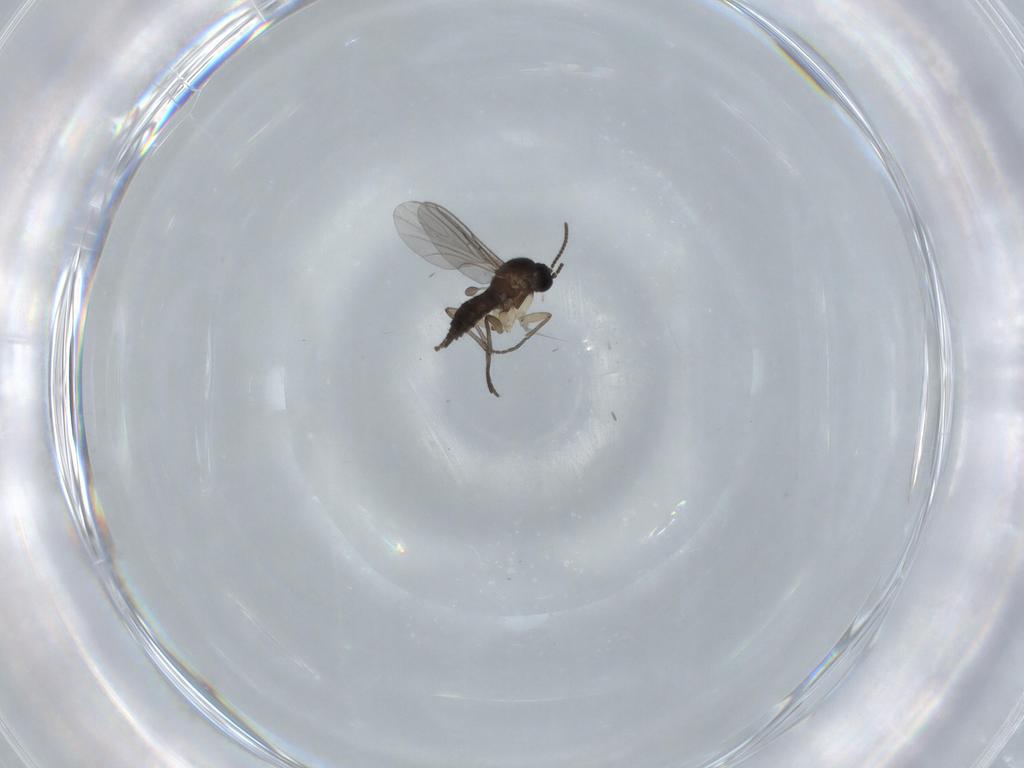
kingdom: Animalia
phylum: Arthropoda
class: Insecta
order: Diptera
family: Sciaridae
